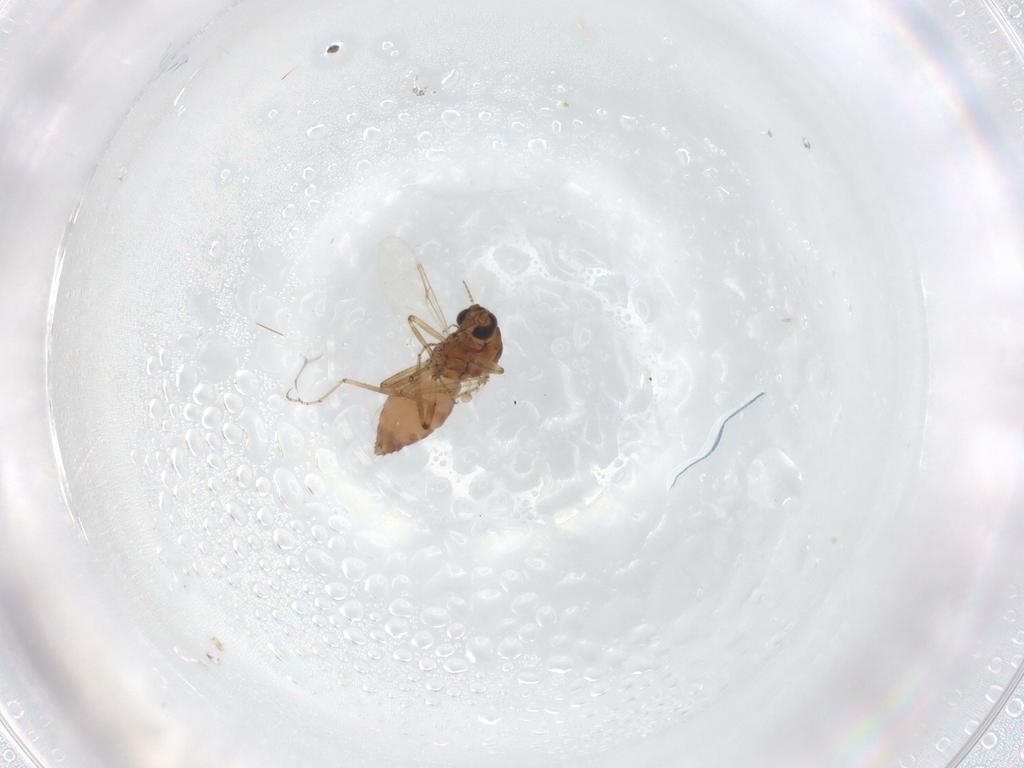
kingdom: Animalia
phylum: Arthropoda
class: Insecta
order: Diptera
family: Ceratopogonidae
